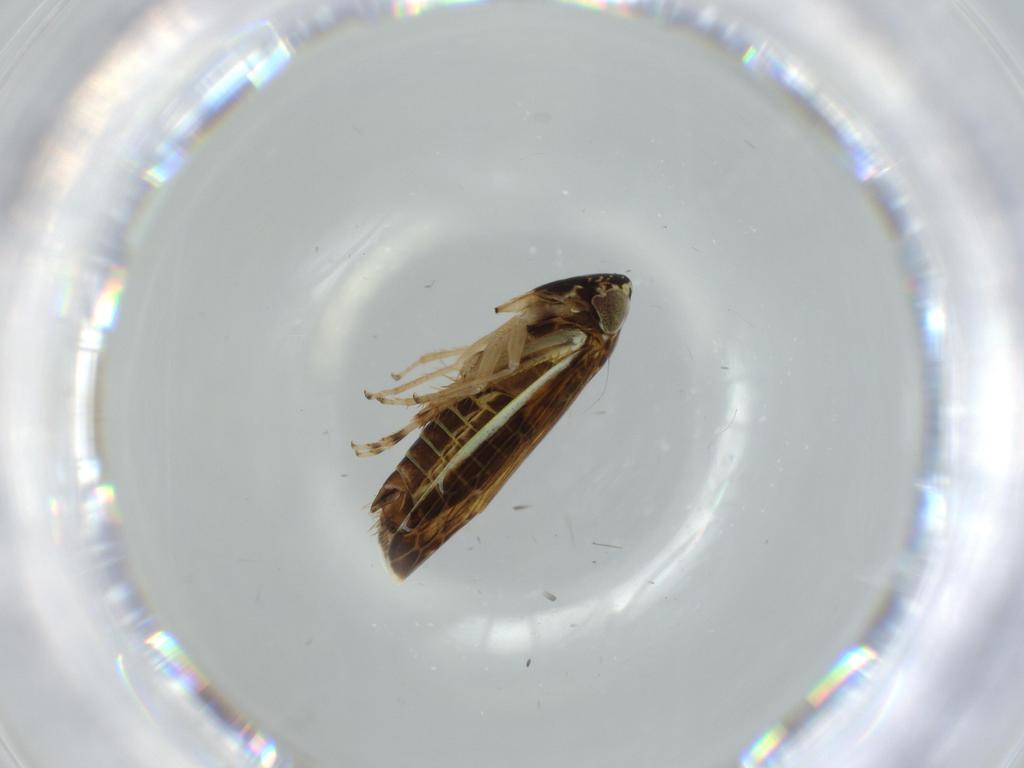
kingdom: Animalia
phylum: Arthropoda
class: Insecta
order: Hemiptera
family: Cicadellidae
